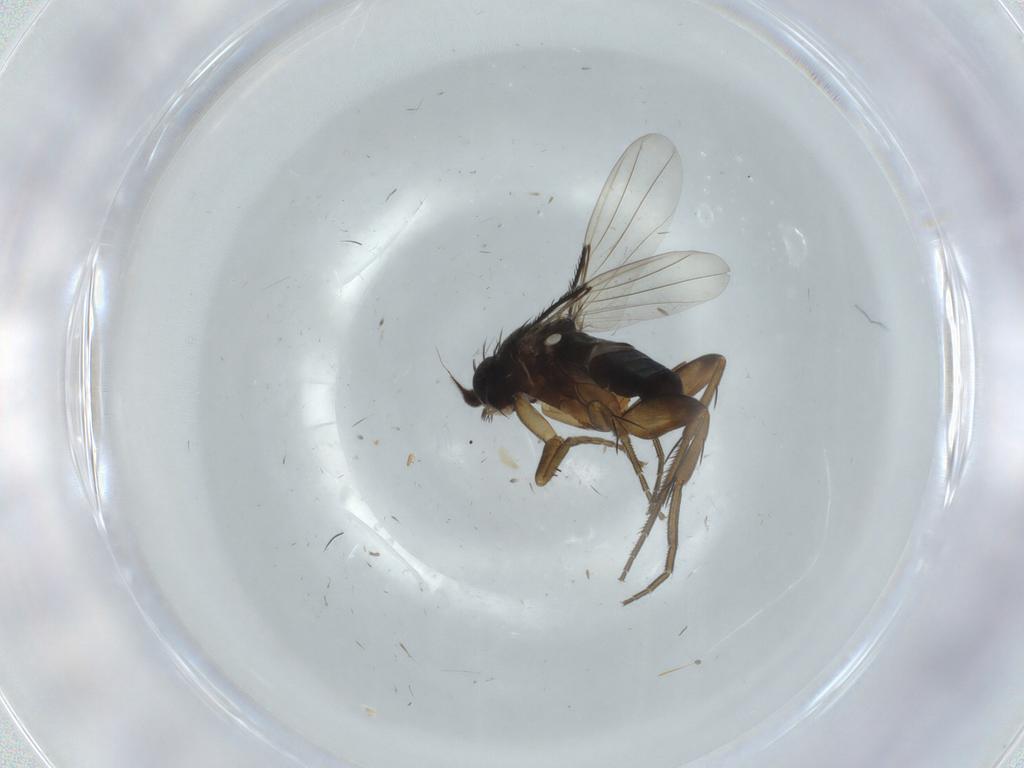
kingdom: Animalia
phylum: Arthropoda
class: Insecta
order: Diptera
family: Phoridae
